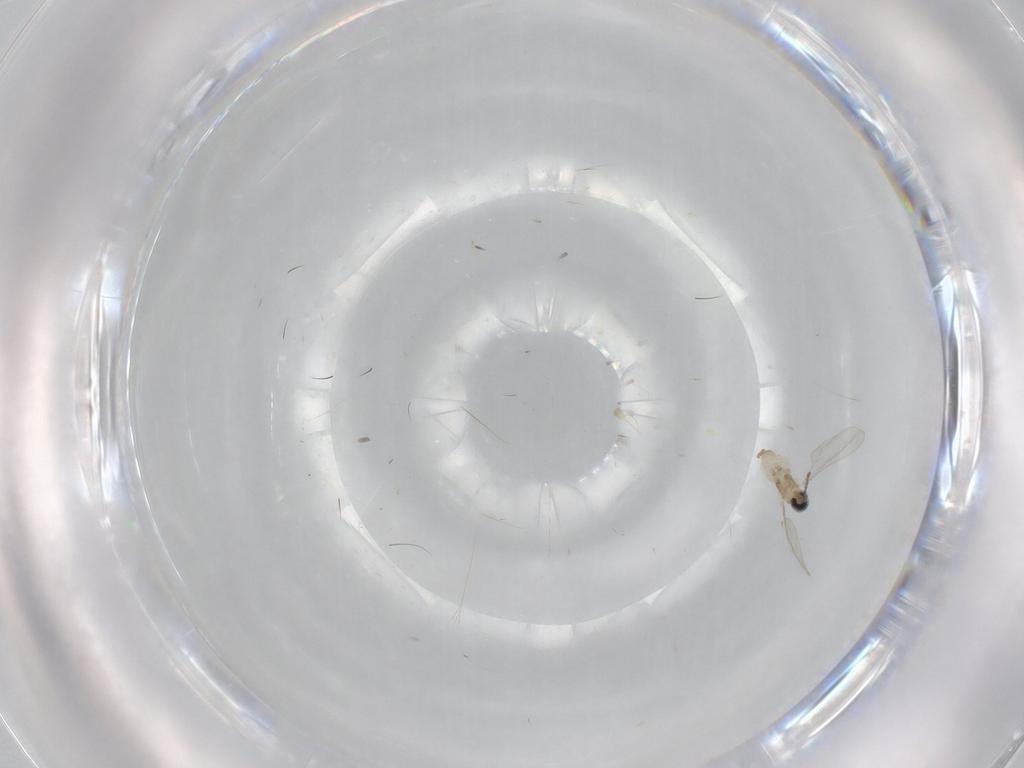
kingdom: Animalia
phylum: Arthropoda
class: Insecta
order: Diptera
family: Cecidomyiidae
